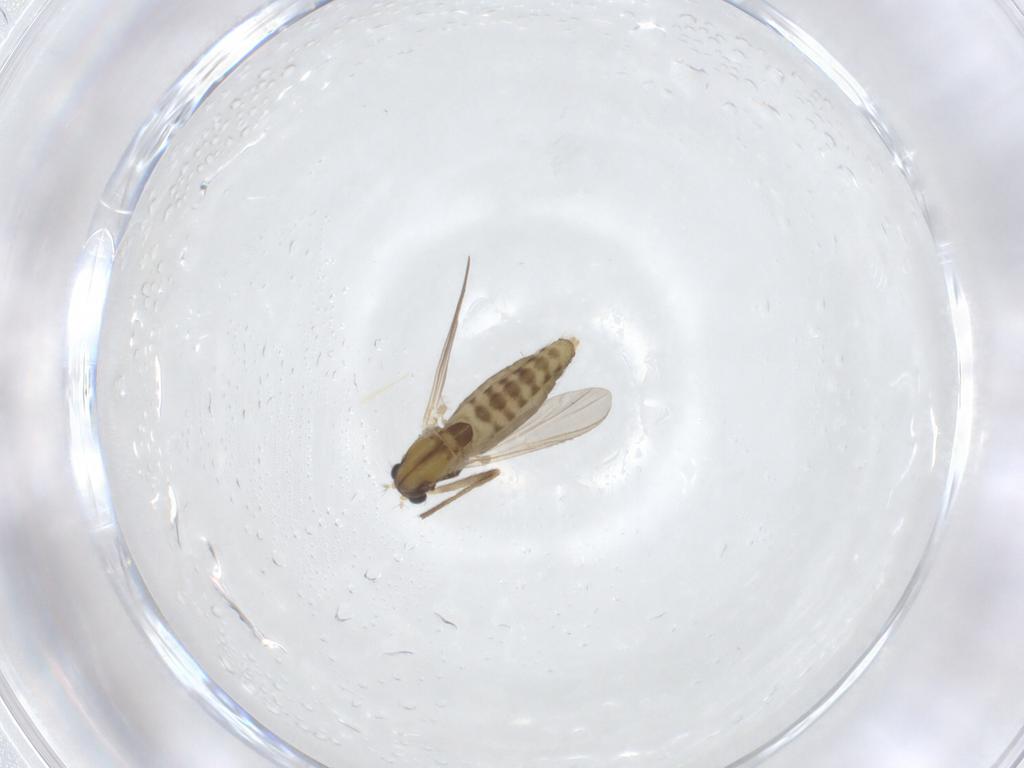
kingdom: Animalia
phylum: Arthropoda
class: Insecta
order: Diptera
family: Chironomidae
